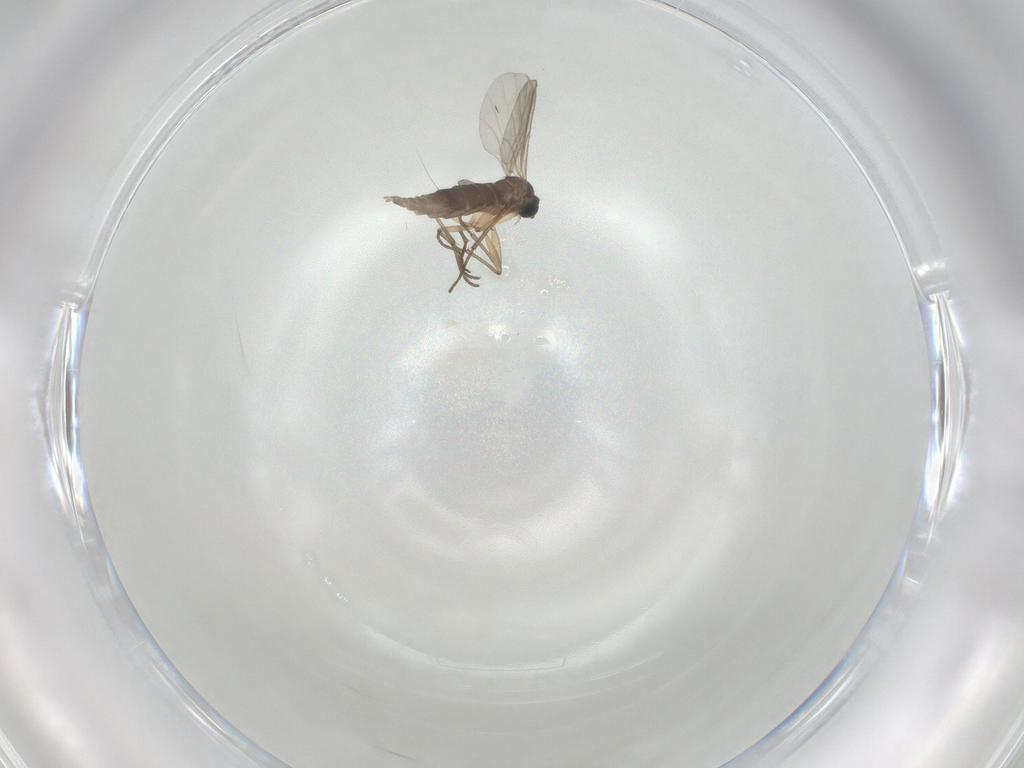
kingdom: Animalia
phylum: Arthropoda
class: Insecta
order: Diptera
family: Sciaridae
